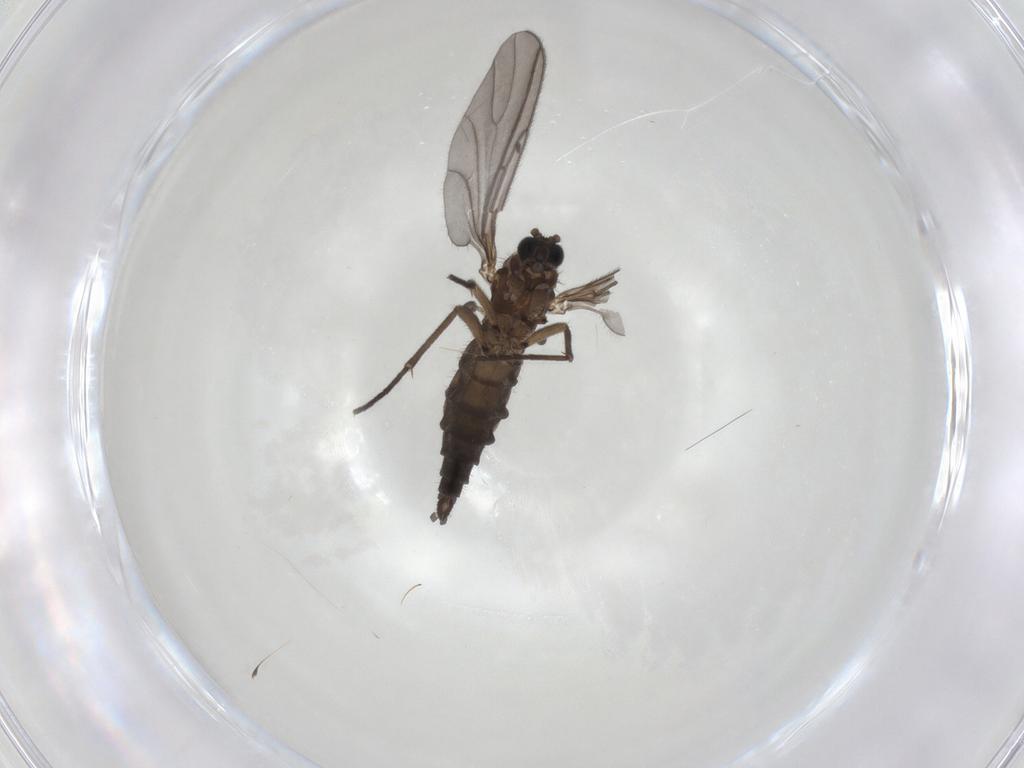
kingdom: Animalia
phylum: Arthropoda
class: Insecta
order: Diptera
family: Sciaridae
